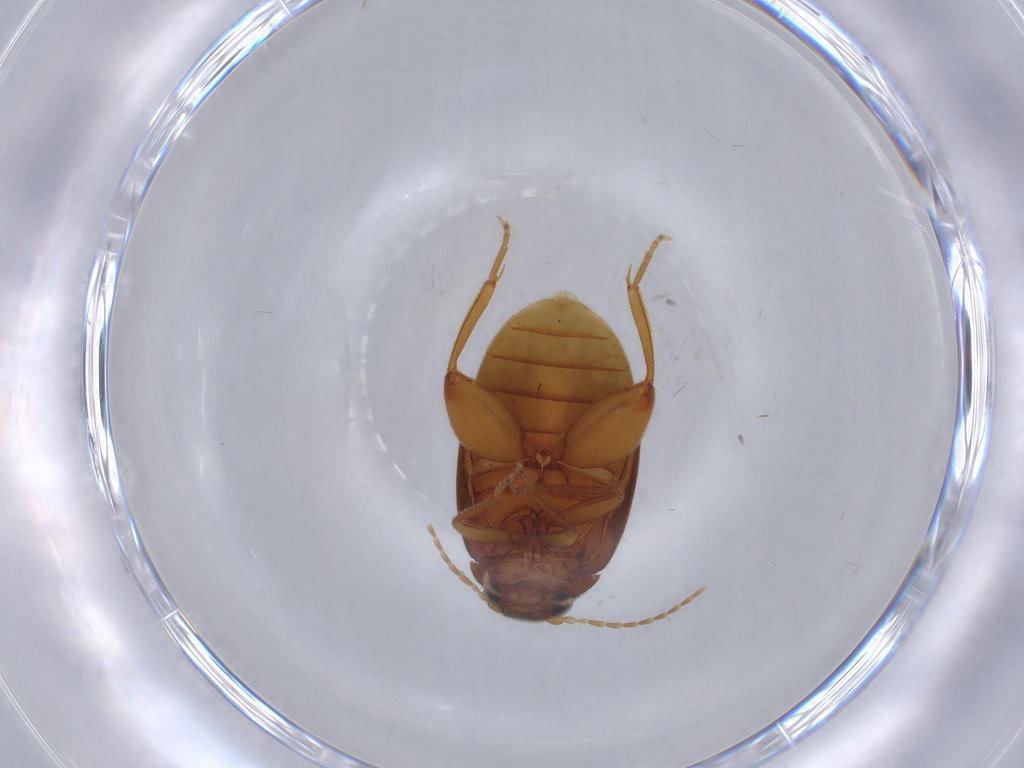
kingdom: Animalia
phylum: Arthropoda
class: Insecta
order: Coleoptera
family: Scirtidae
